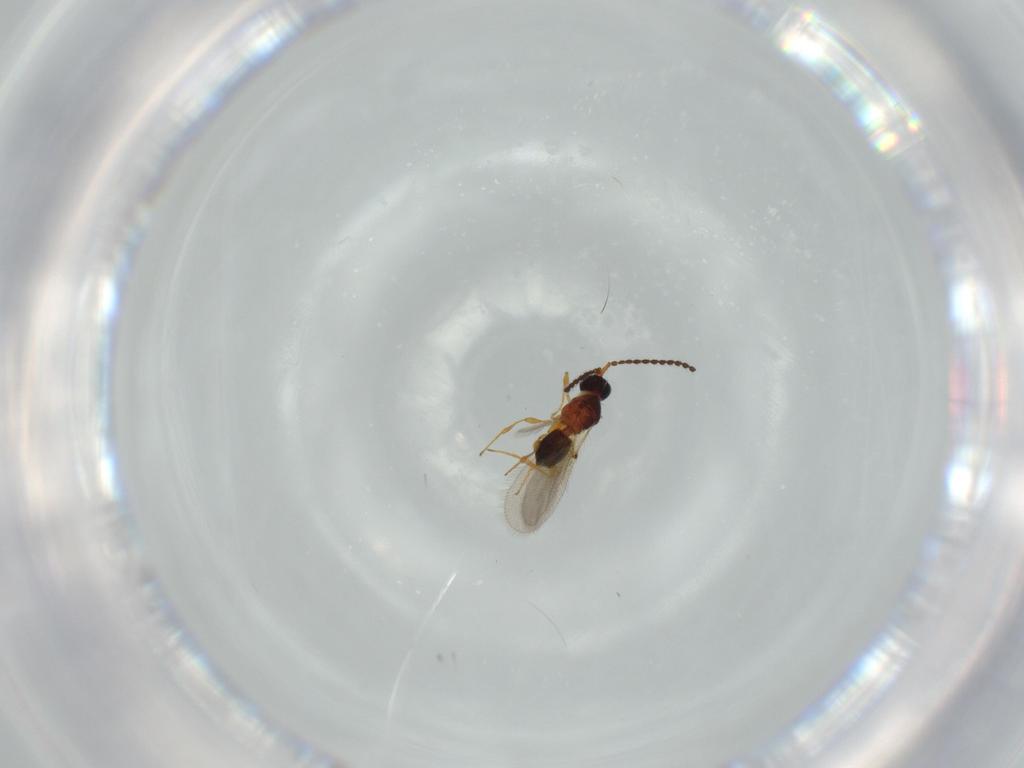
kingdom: Animalia
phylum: Arthropoda
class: Insecta
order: Hymenoptera
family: Diapriidae
